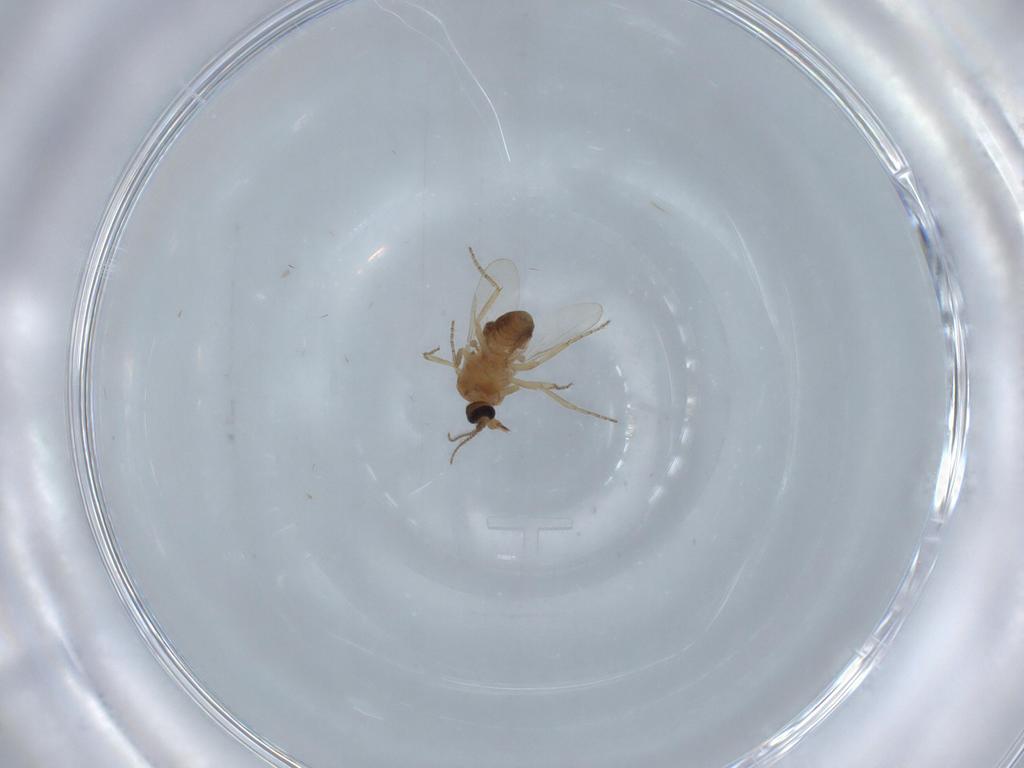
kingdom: Animalia
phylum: Arthropoda
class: Insecta
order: Diptera
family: Ceratopogonidae
